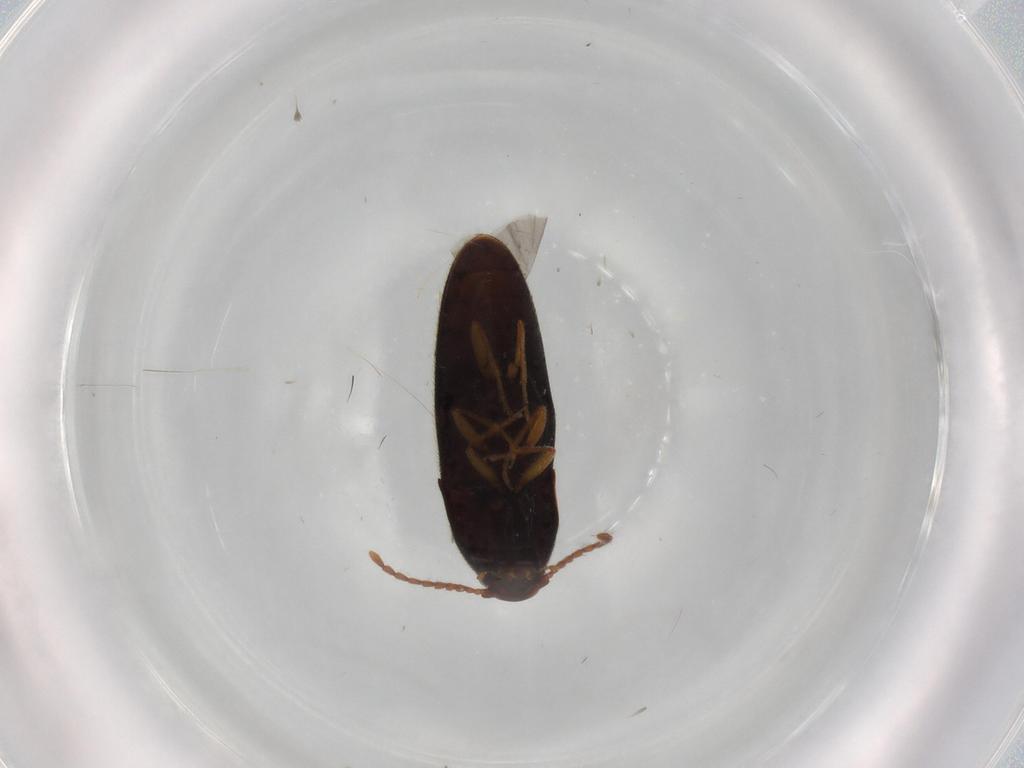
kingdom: Animalia
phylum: Arthropoda
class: Insecta
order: Coleoptera
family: Elateridae
